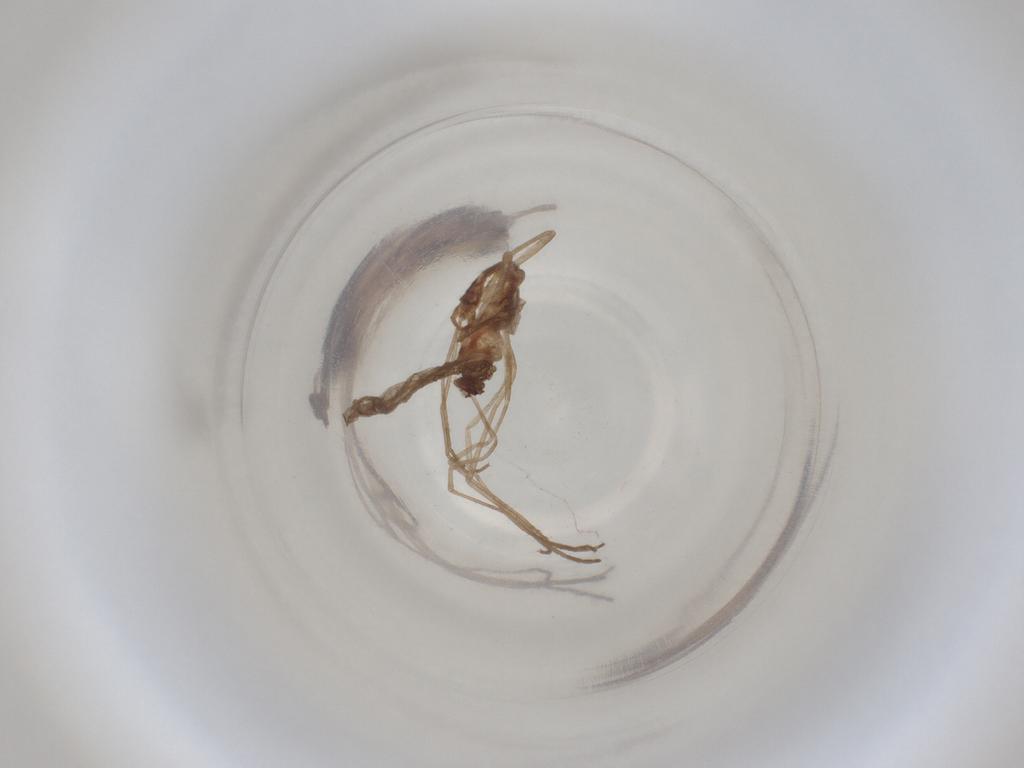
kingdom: Animalia
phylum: Arthropoda
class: Insecta
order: Diptera
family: Cecidomyiidae
